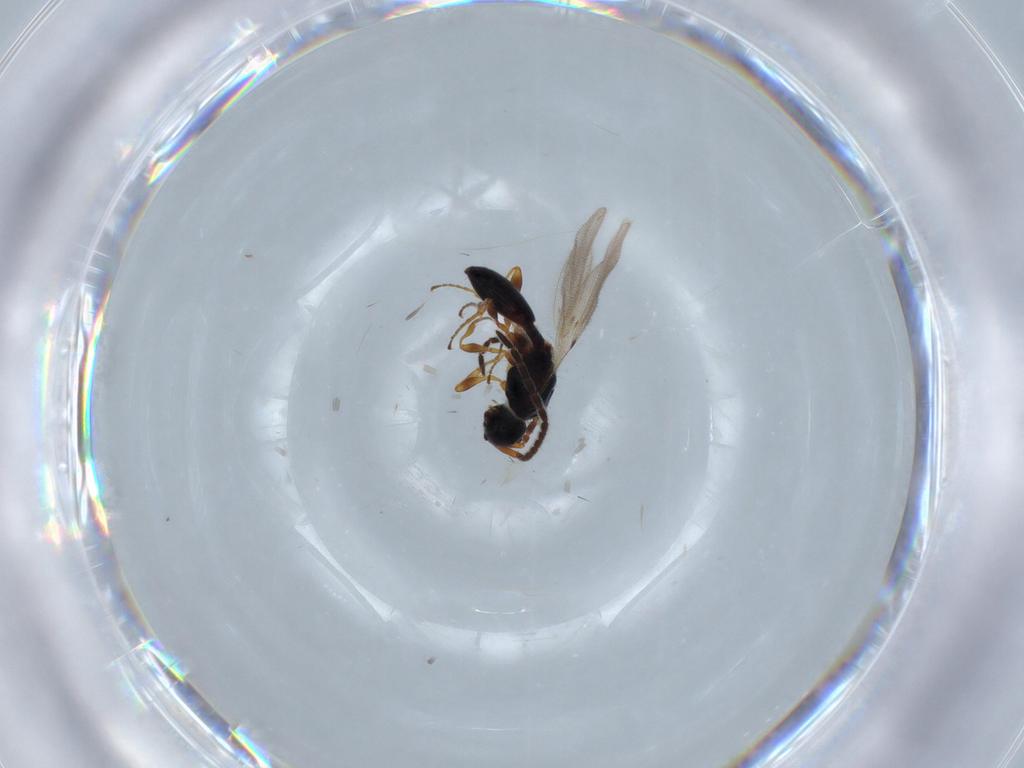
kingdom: Animalia
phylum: Arthropoda
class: Insecta
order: Hymenoptera
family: Diapriidae
